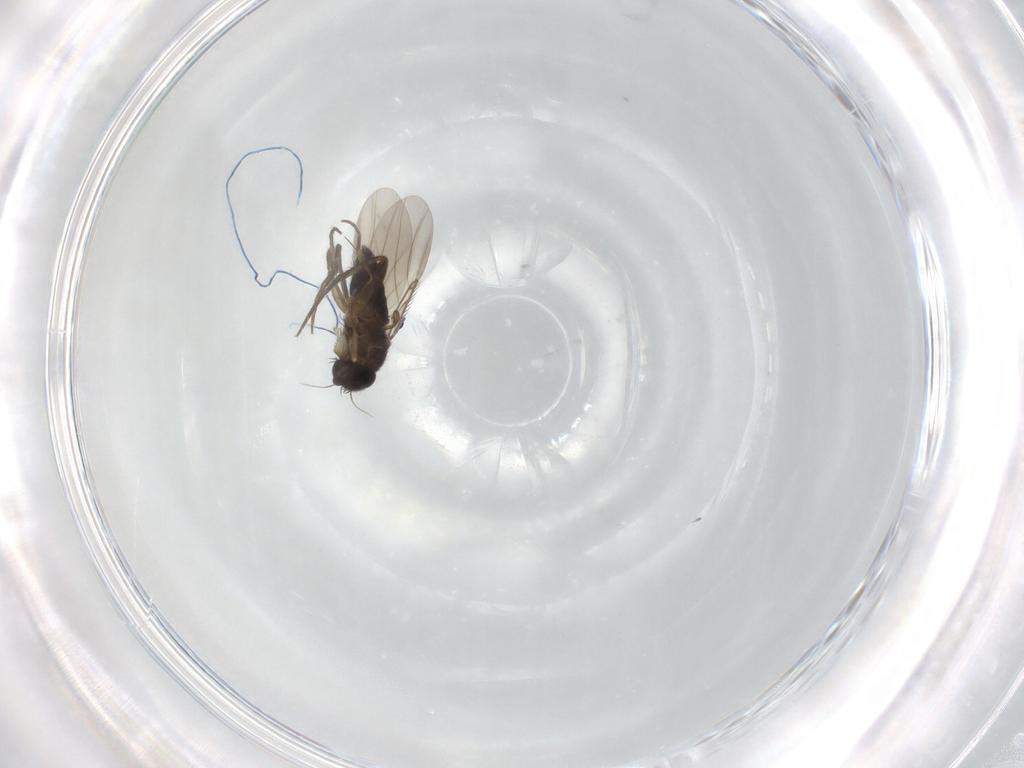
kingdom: Animalia
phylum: Arthropoda
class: Insecta
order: Diptera
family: Phoridae
